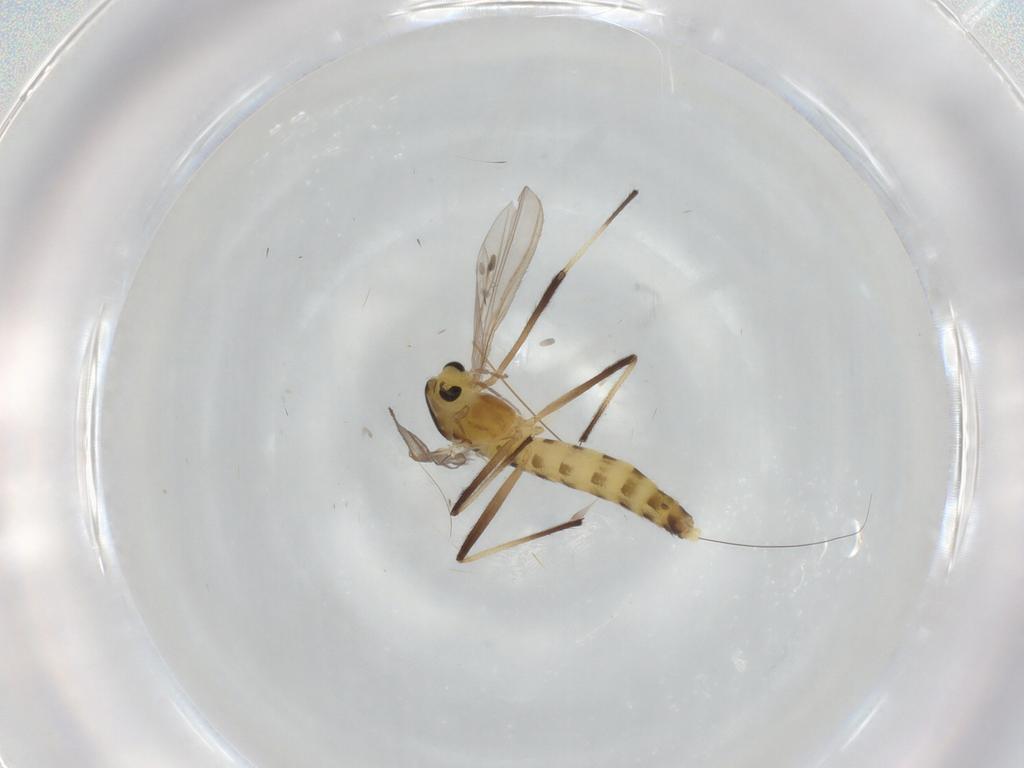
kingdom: Animalia
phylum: Arthropoda
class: Insecta
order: Diptera
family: Chironomidae
